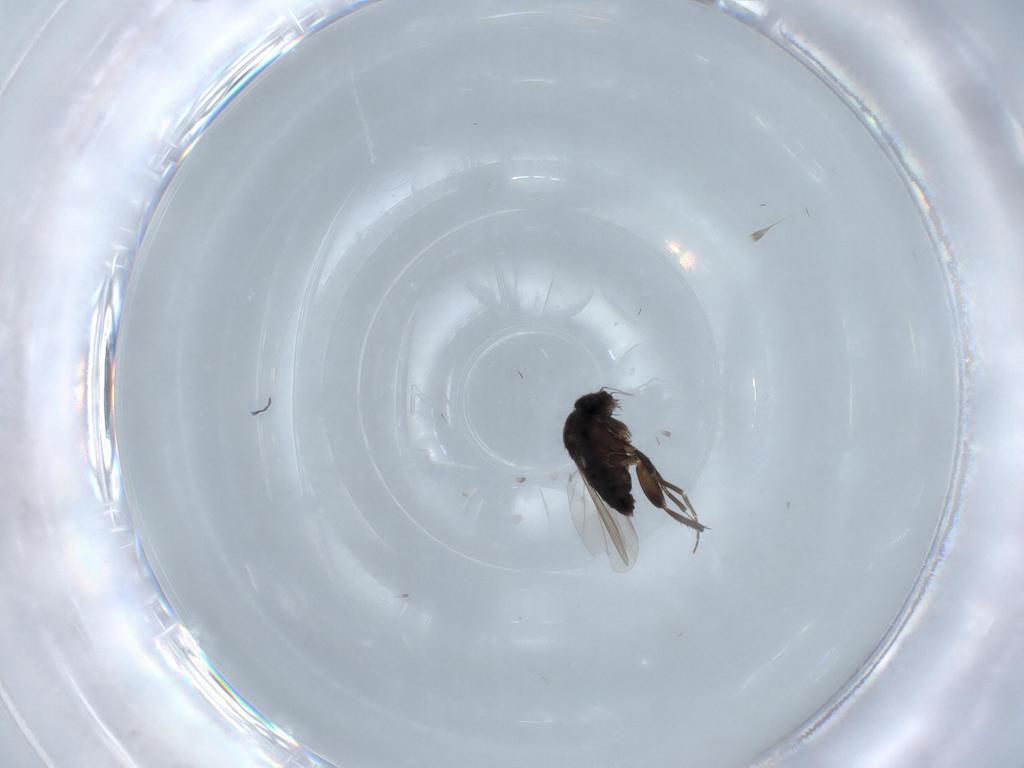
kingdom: Animalia
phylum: Arthropoda
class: Insecta
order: Diptera
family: Phoridae
